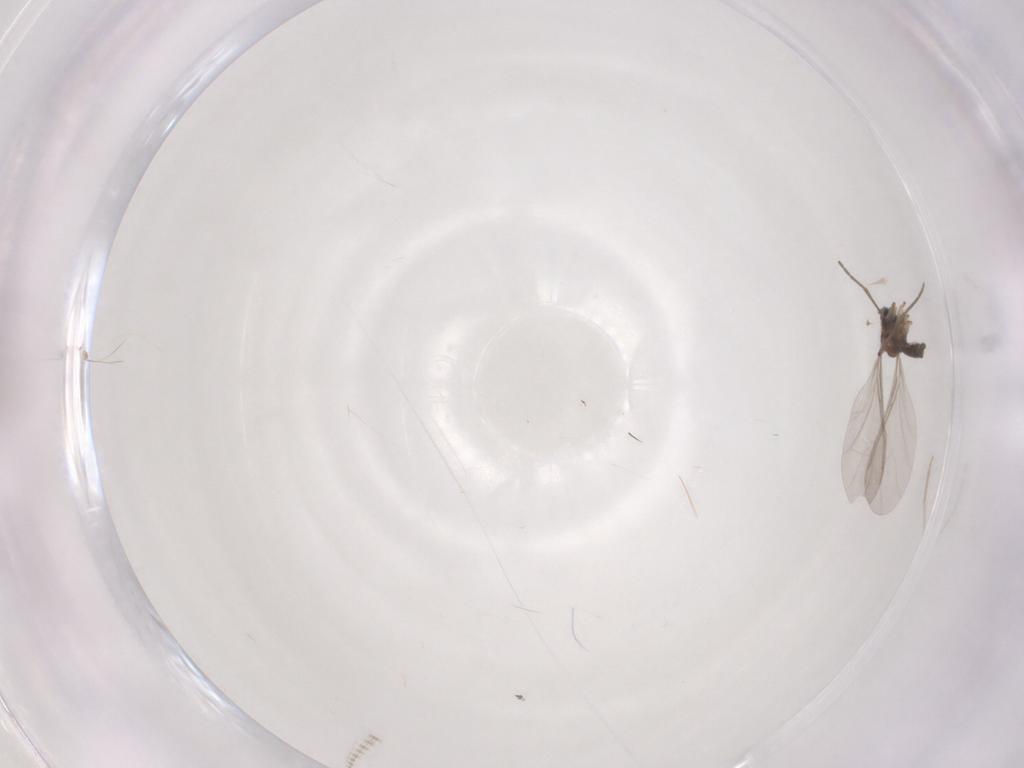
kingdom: Animalia
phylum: Arthropoda
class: Insecta
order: Diptera
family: Sciaridae
